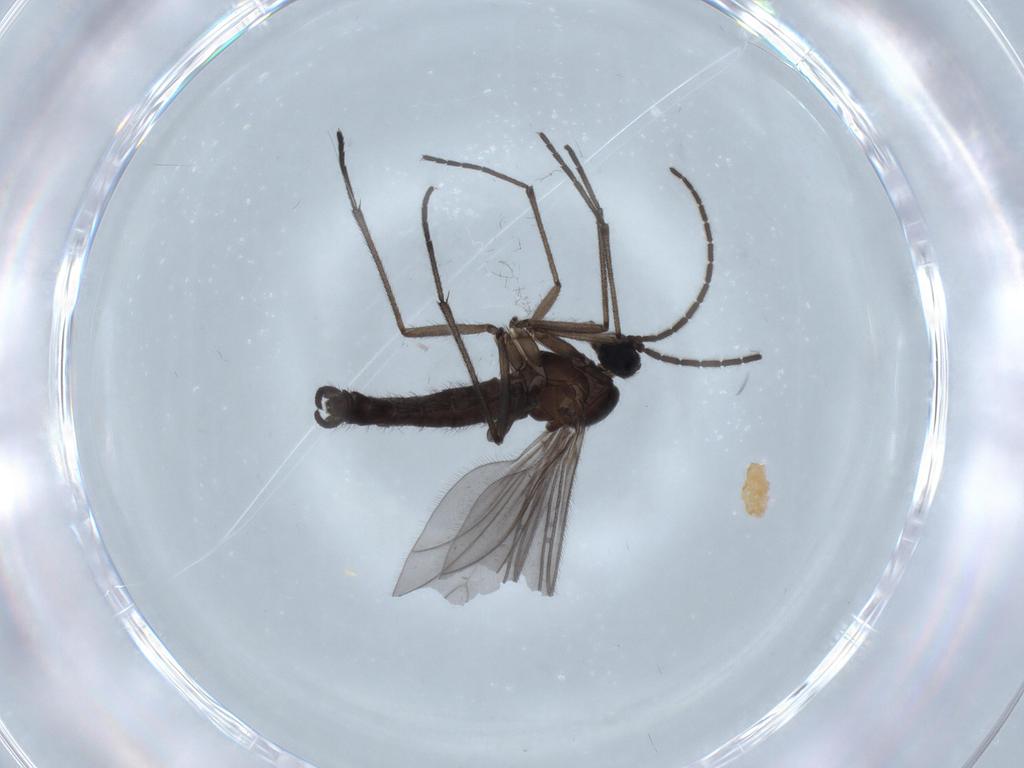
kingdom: Animalia
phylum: Arthropoda
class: Insecta
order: Diptera
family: Sciaridae
